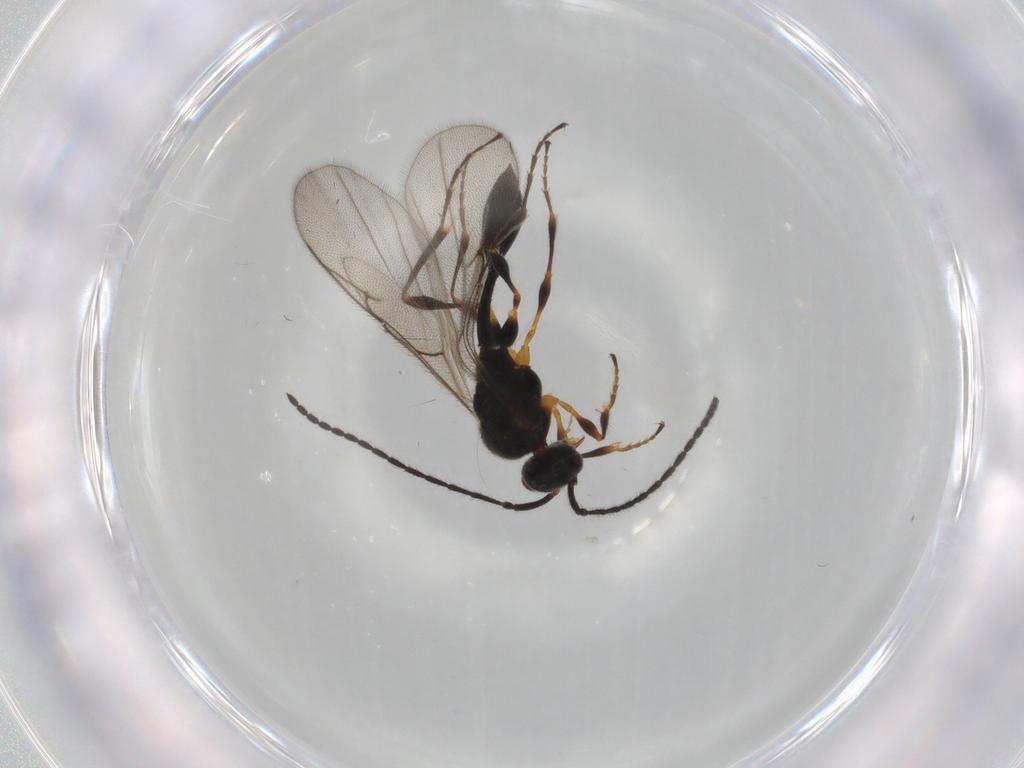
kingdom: Animalia
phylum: Arthropoda
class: Insecta
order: Hymenoptera
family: Diapriidae
